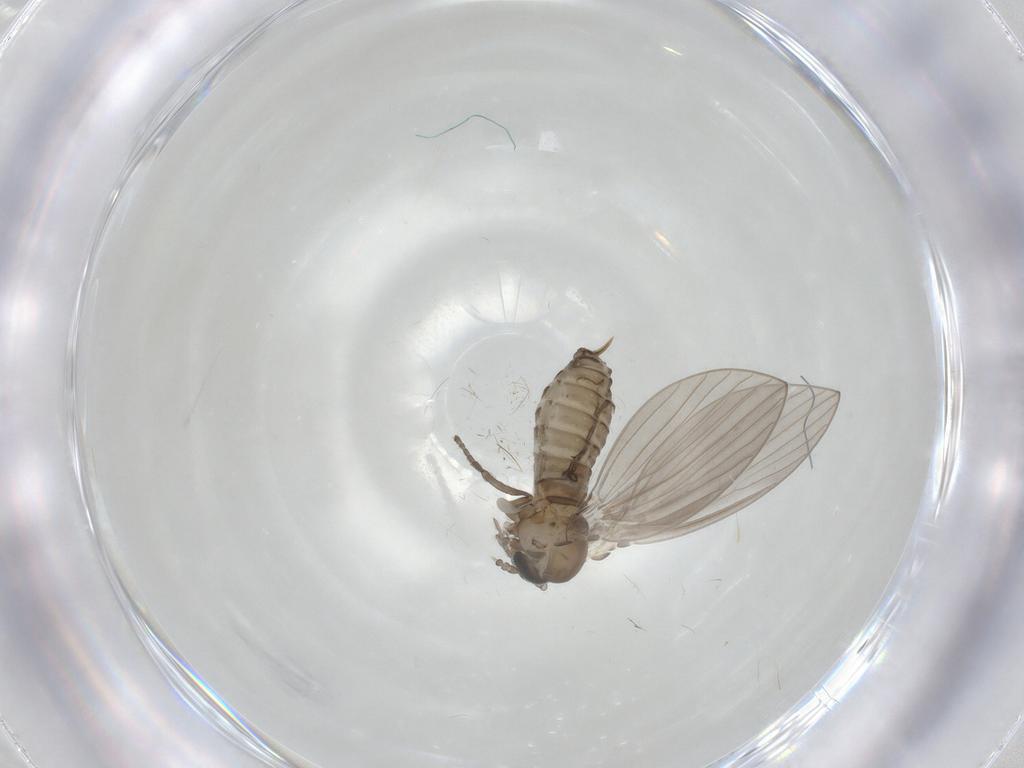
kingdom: Animalia
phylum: Arthropoda
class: Insecta
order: Diptera
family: Psychodidae
